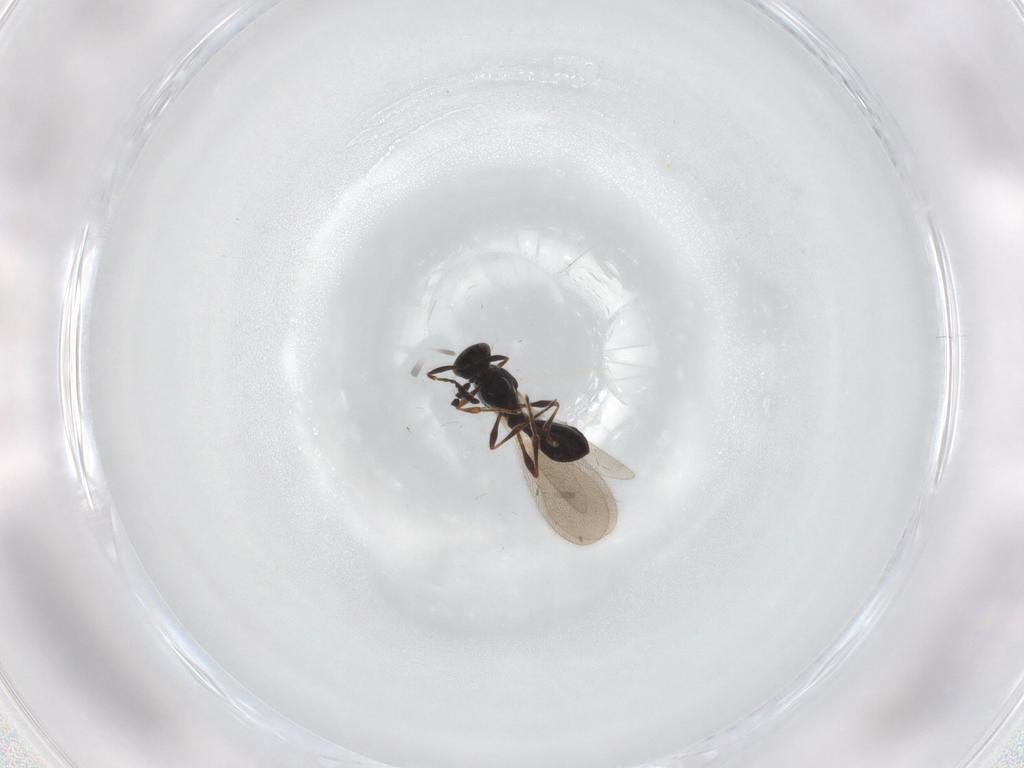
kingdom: Animalia
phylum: Arthropoda
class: Insecta
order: Hymenoptera
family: Platygastridae
